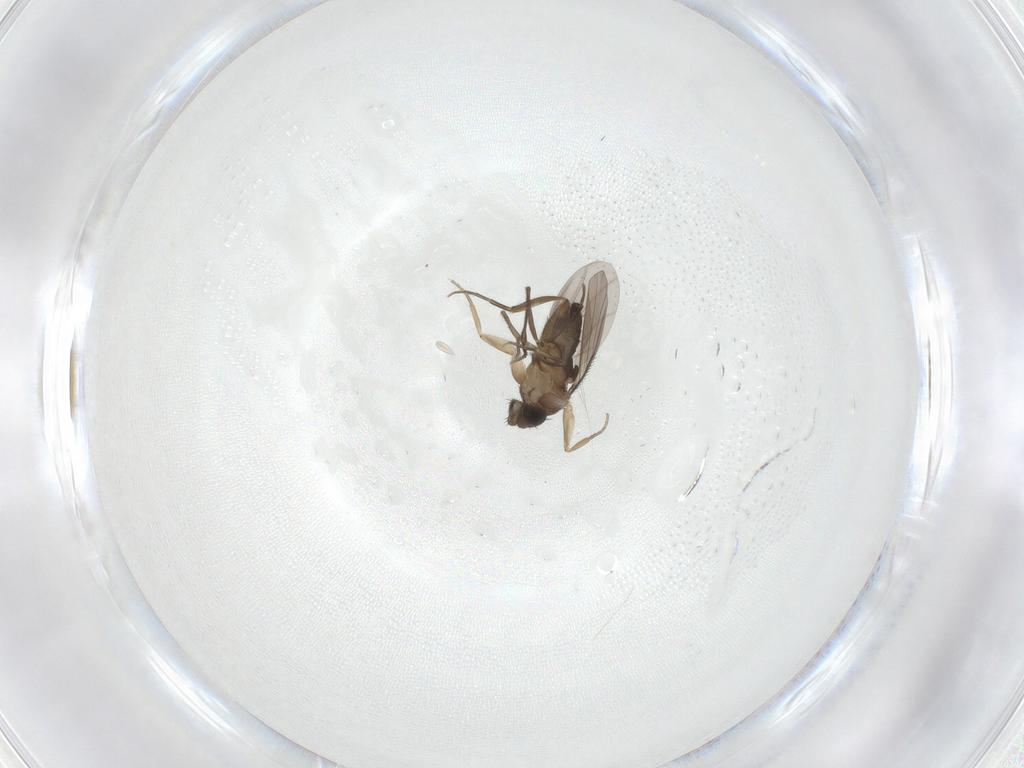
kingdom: Animalia
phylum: Arthropoda
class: Insecta
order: Diptera
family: Phoridae
